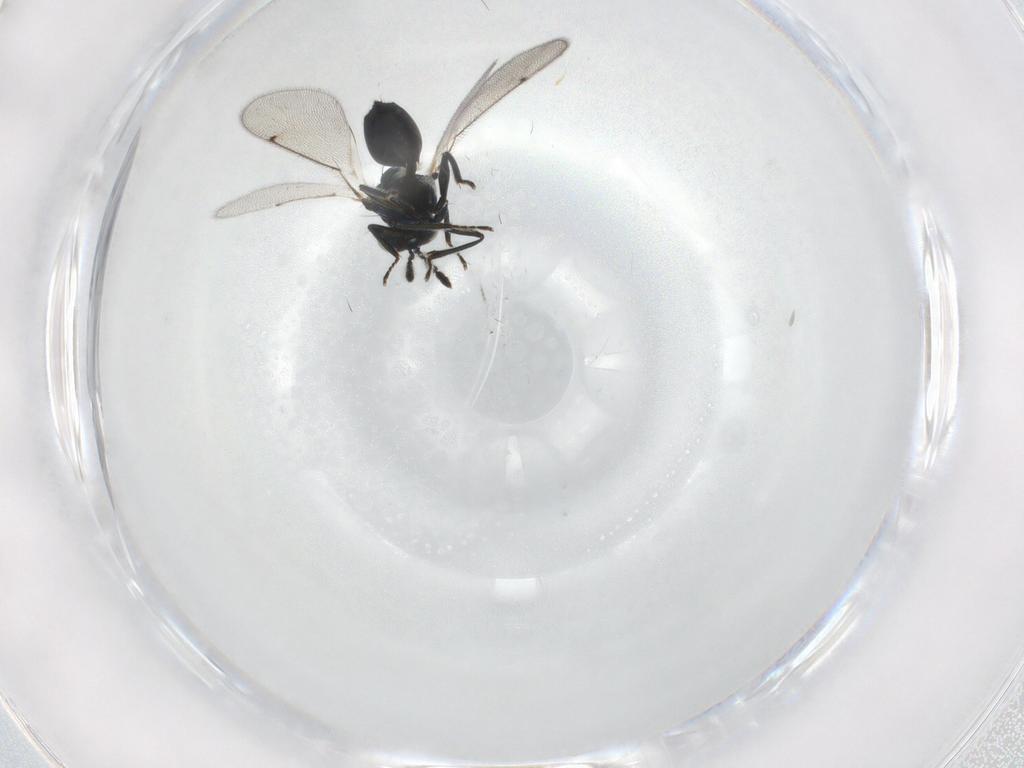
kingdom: Animalia
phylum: Arthropoda
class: Insecta
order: Hymenoptera
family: Eulophidae
